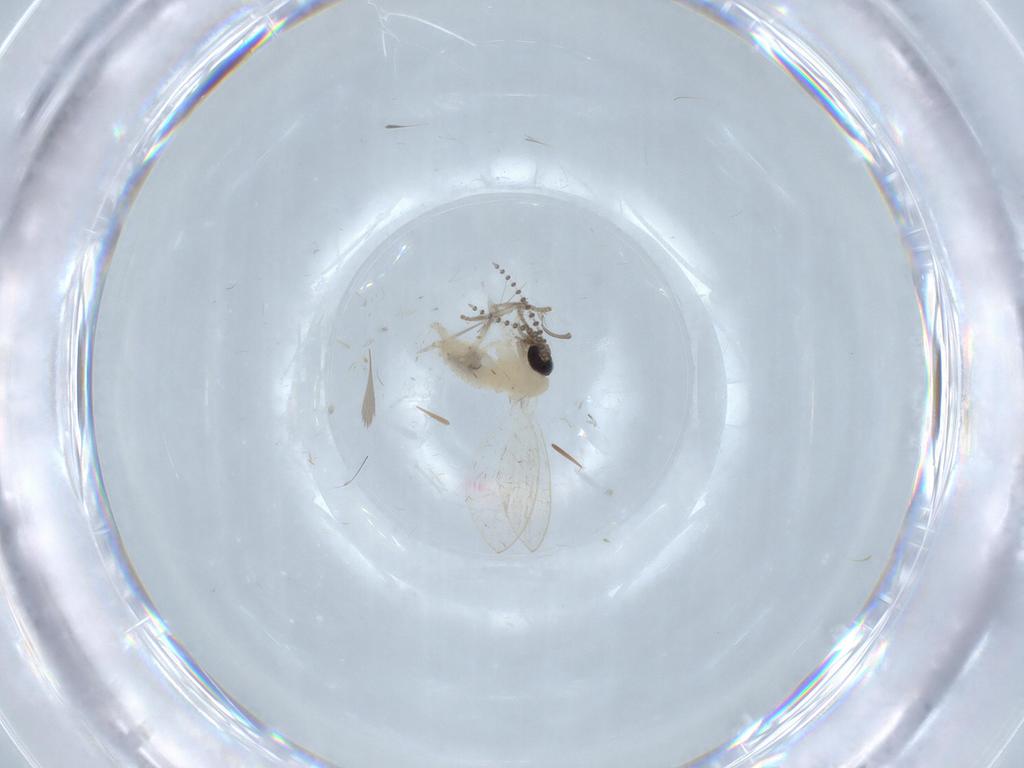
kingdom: Animalia
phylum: Arthropoda
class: Insecta
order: Diptera
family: Psychodidae
